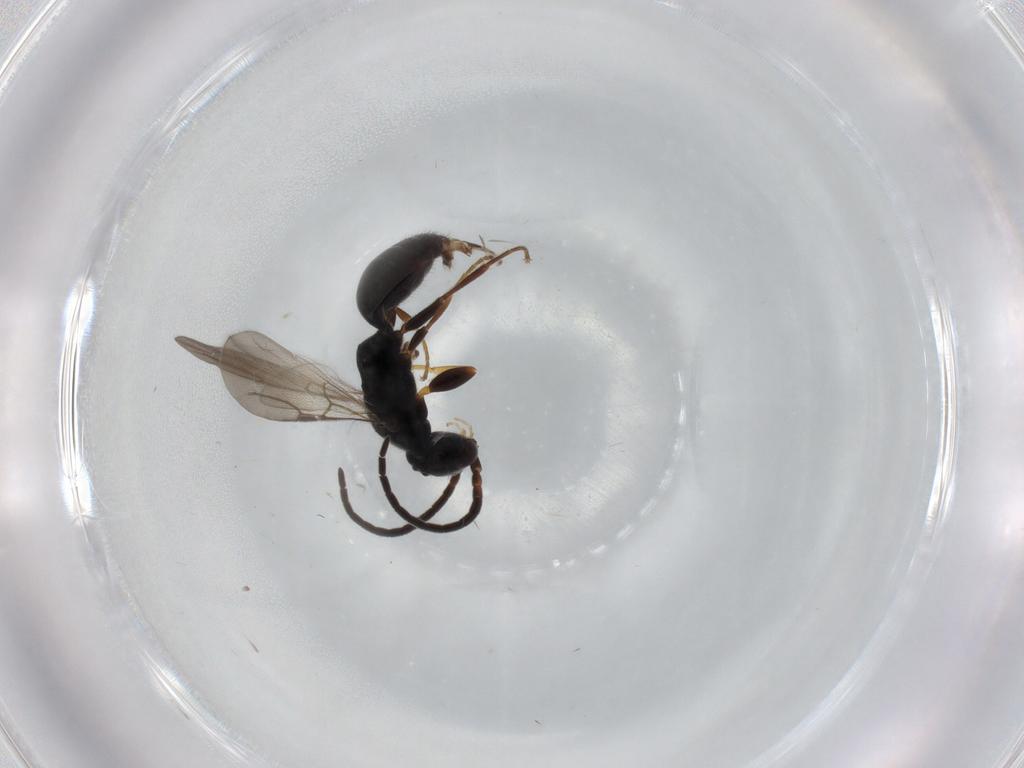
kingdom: Animalia
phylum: Arthropoda
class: Insecta
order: Hymenoptera
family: Bethylidae
